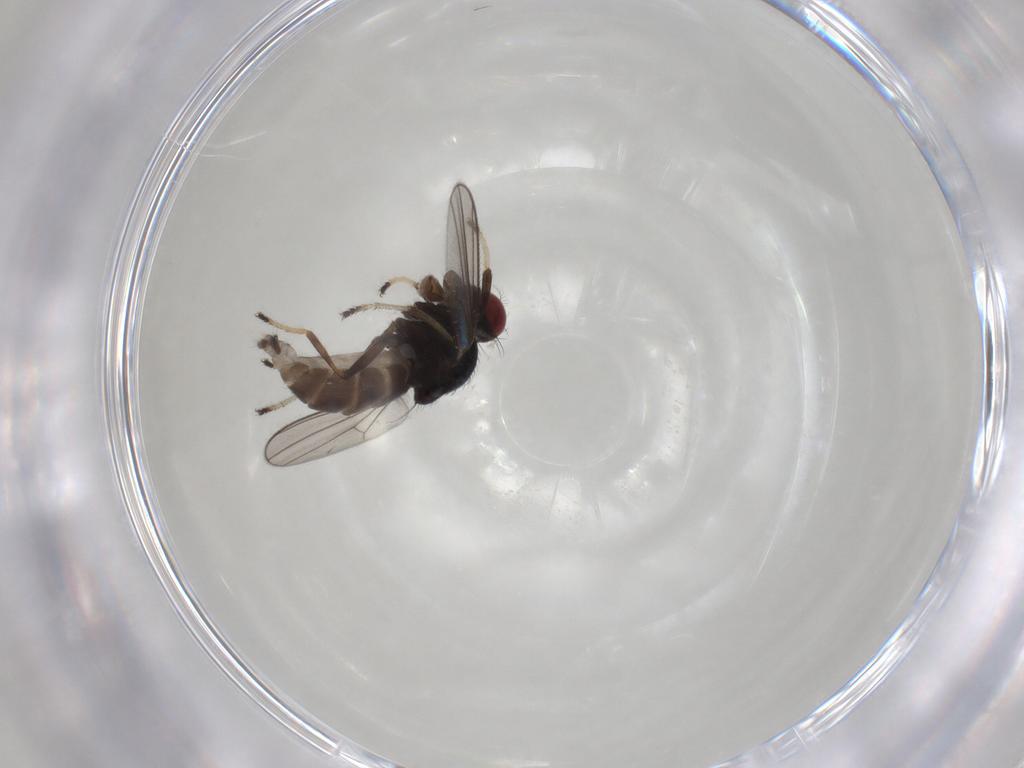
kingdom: Animalia
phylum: Arthropoda
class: Insecta
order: Diptera
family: Chloropidae
